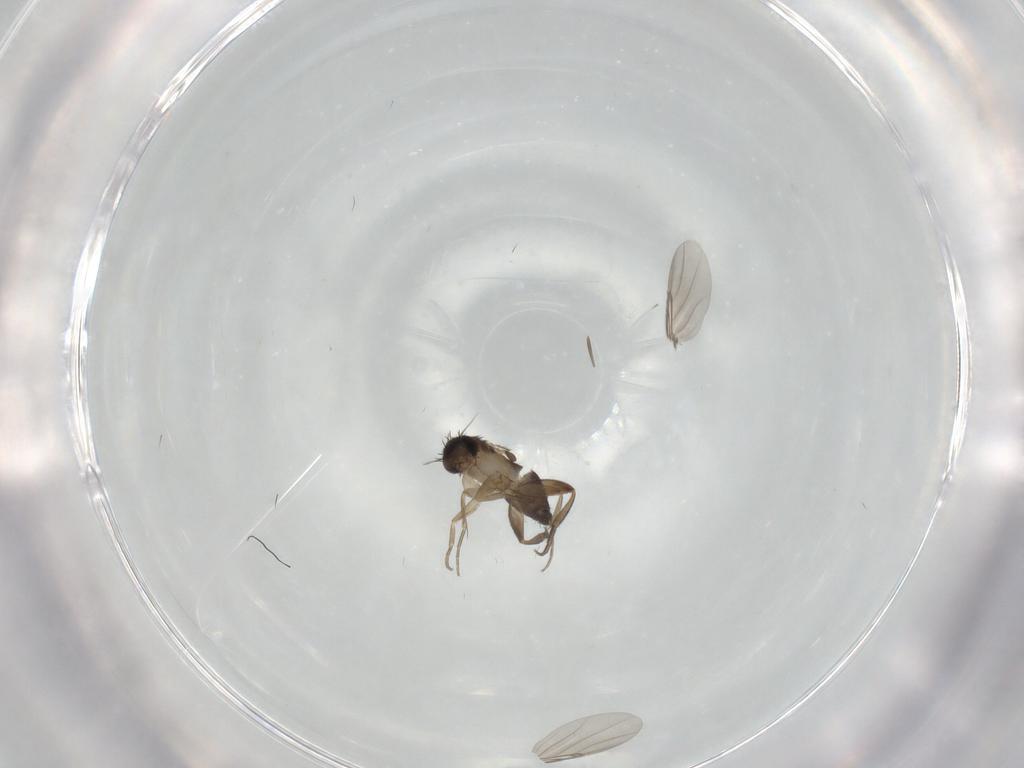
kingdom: Animalia
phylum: Arthropoda
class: Insecta
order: Diptera
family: Phoridae
